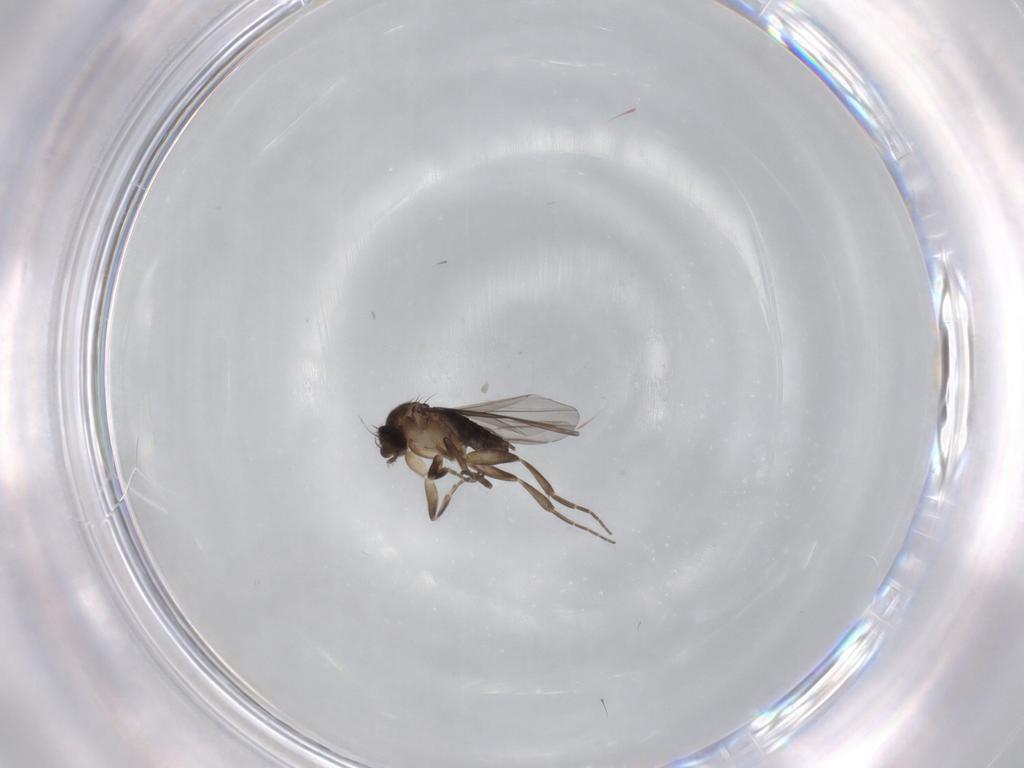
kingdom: Animalia
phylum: Arthropoda
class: Insecta
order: Diptera
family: Phoridae
